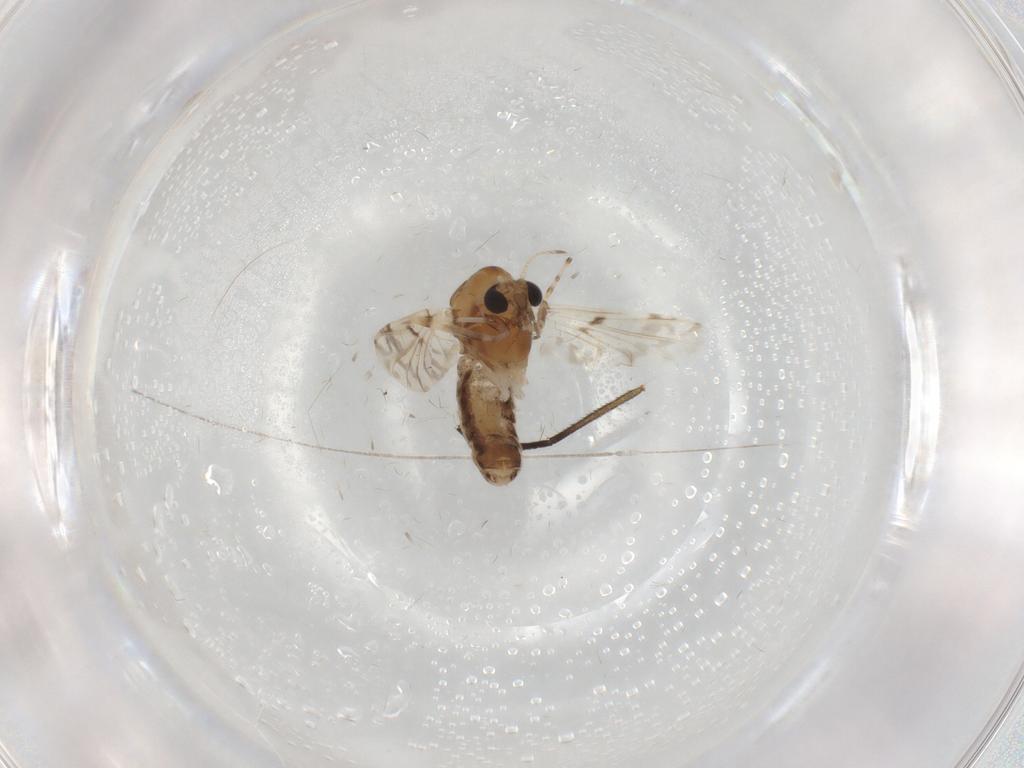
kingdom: Animalia
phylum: Arthropoda
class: Insecta
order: Diptera
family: Chironomidae
